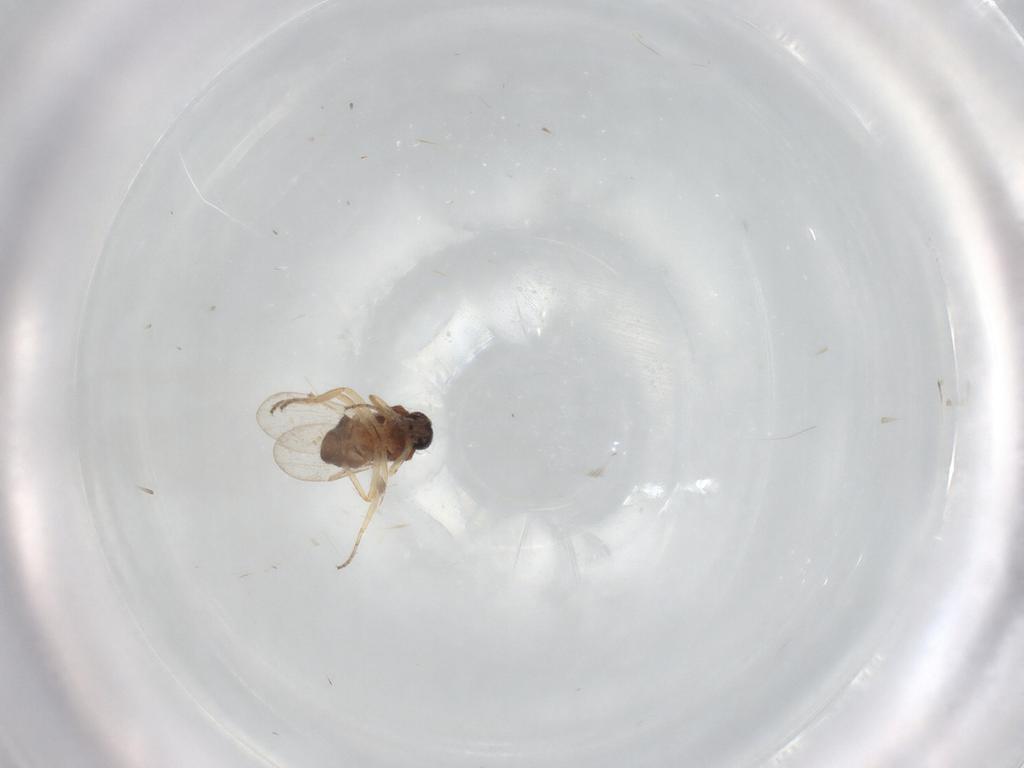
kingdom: Animalia
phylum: Arthropoda
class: Insecta
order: Diptera
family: Ceratopogonidae
